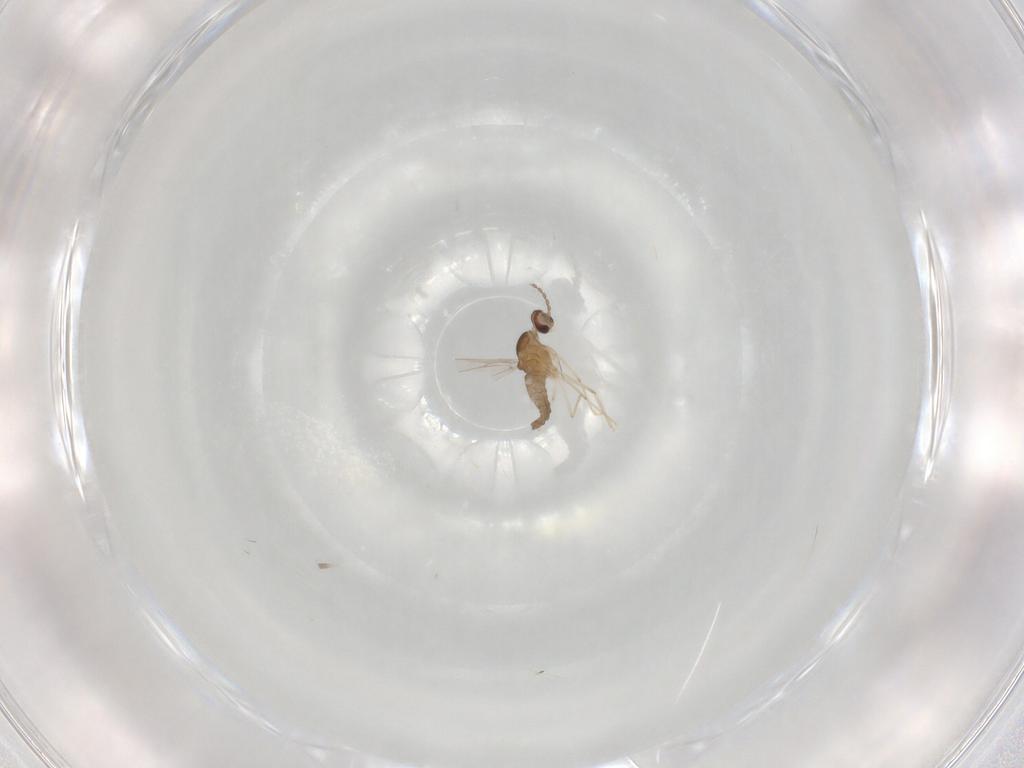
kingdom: Animalia
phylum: Arthropoda
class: Insecta
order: Diptera
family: Cecidomyiidae
